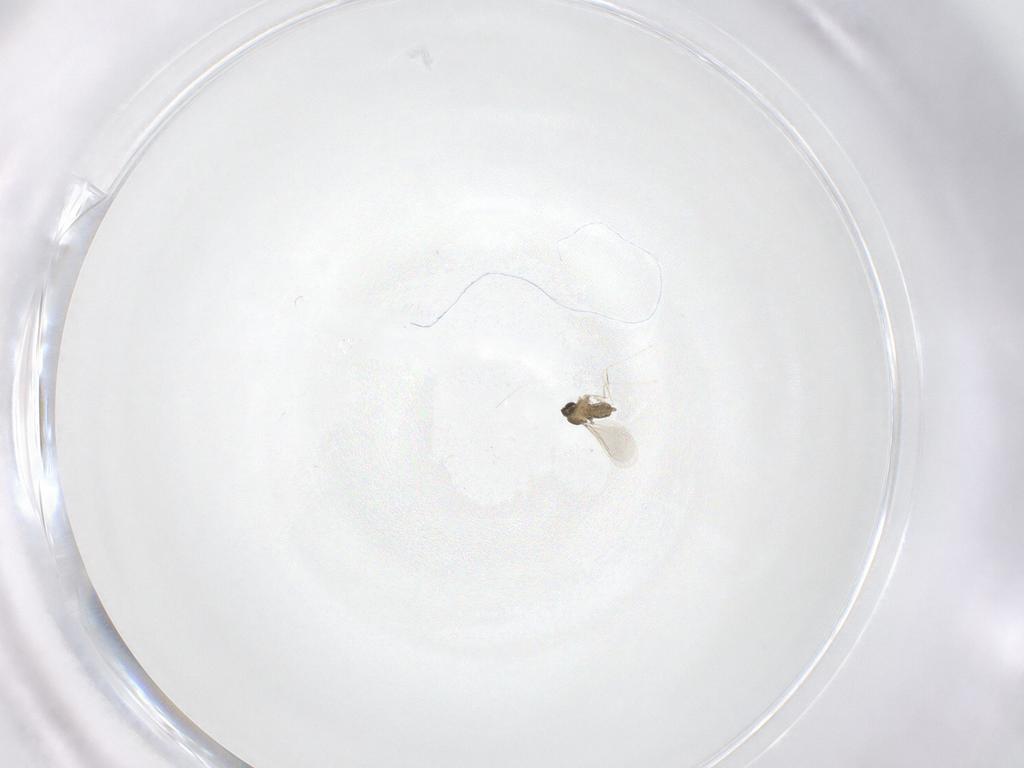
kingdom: Animalia
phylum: Arthropoda
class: Insecta
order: Diptera
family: Cecidomyiidae
